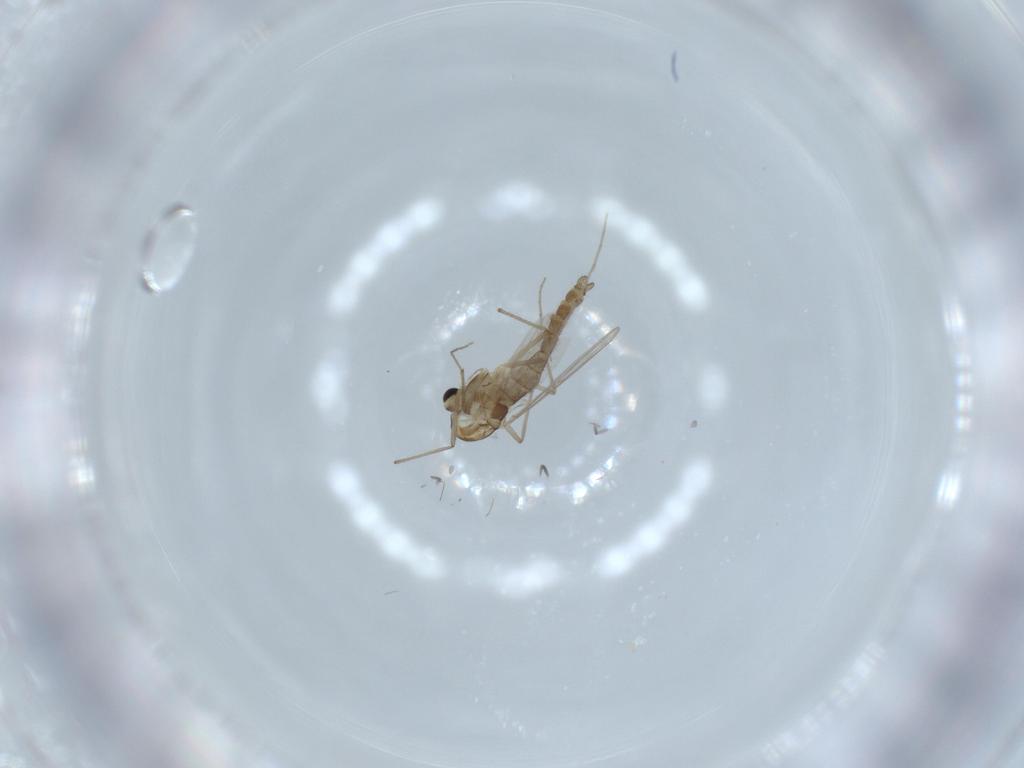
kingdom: Animalia
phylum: Arthropoda
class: Insecta
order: Diptera
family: Chironomidae
